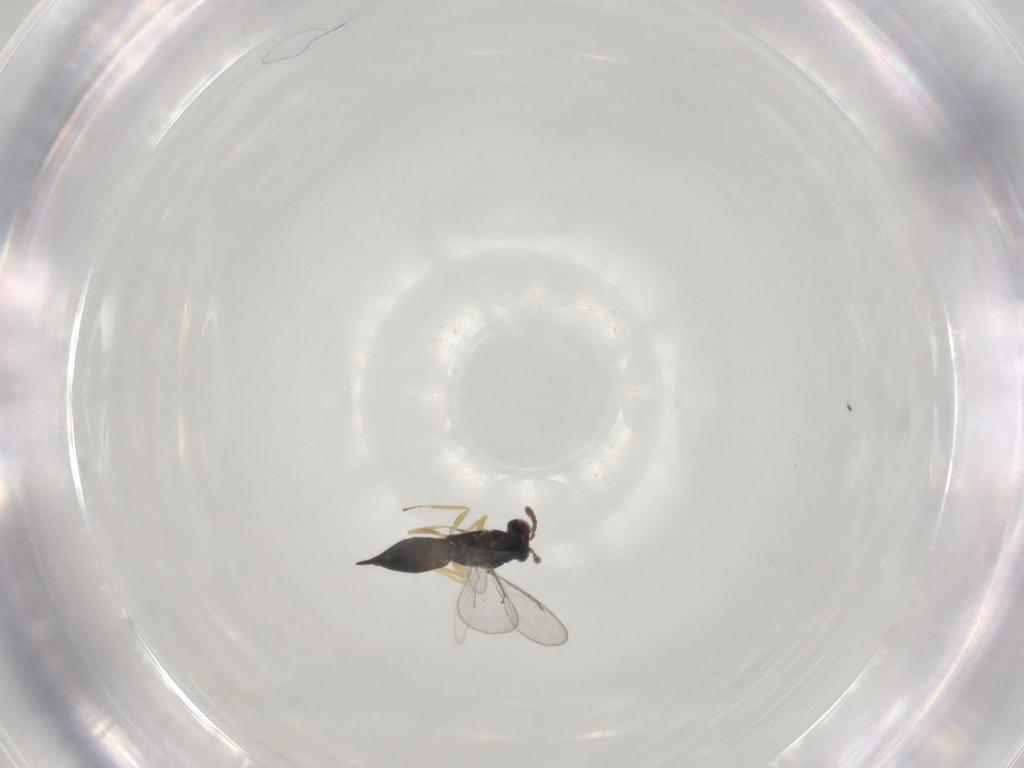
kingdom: Animalia
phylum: Arthropoda
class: Insecta
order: Hymenoptera
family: Eulophidae
